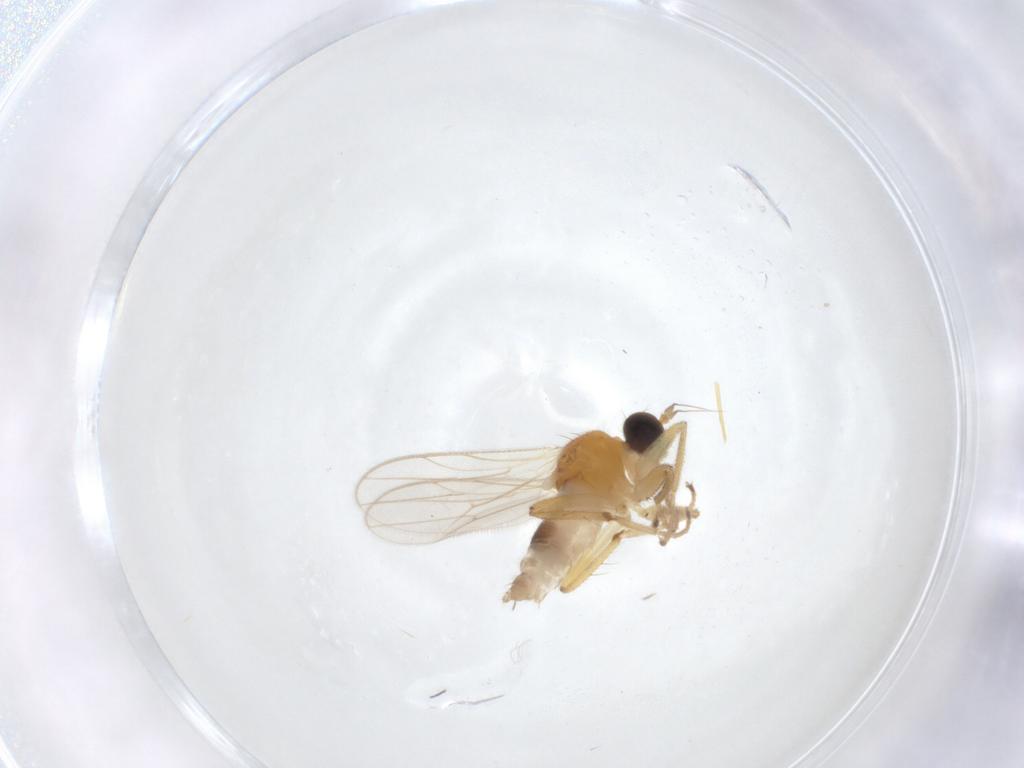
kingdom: Animalia
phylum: Arthropoda
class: Insecta
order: Diptera
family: Hybotidae
